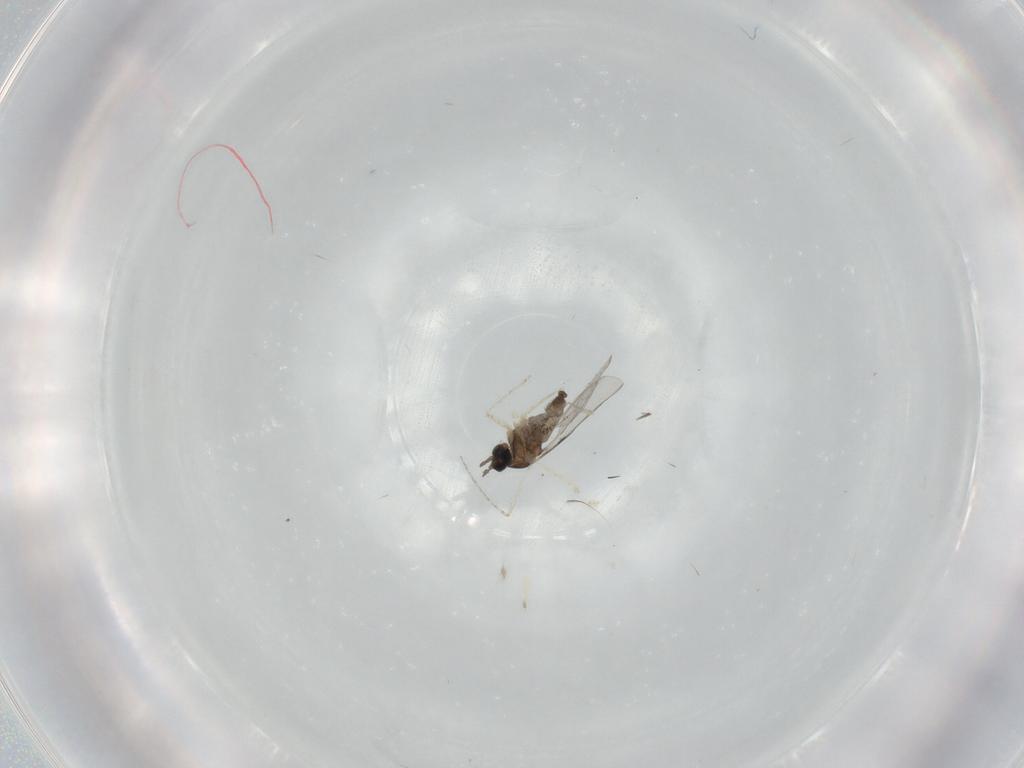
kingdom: Animalia
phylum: Arthropoda
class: Insecta
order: Diptera
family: Cecidomyiidae
